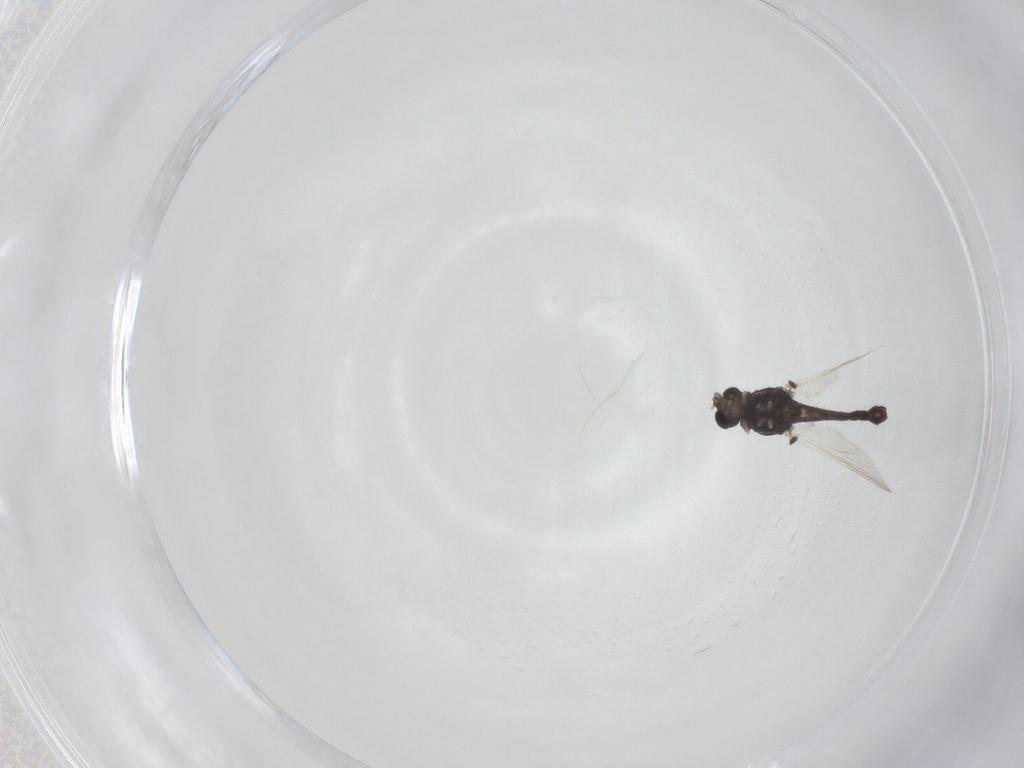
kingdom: Animalia
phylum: Arthropoda
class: Insecta
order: Diptera
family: Chironomidae
